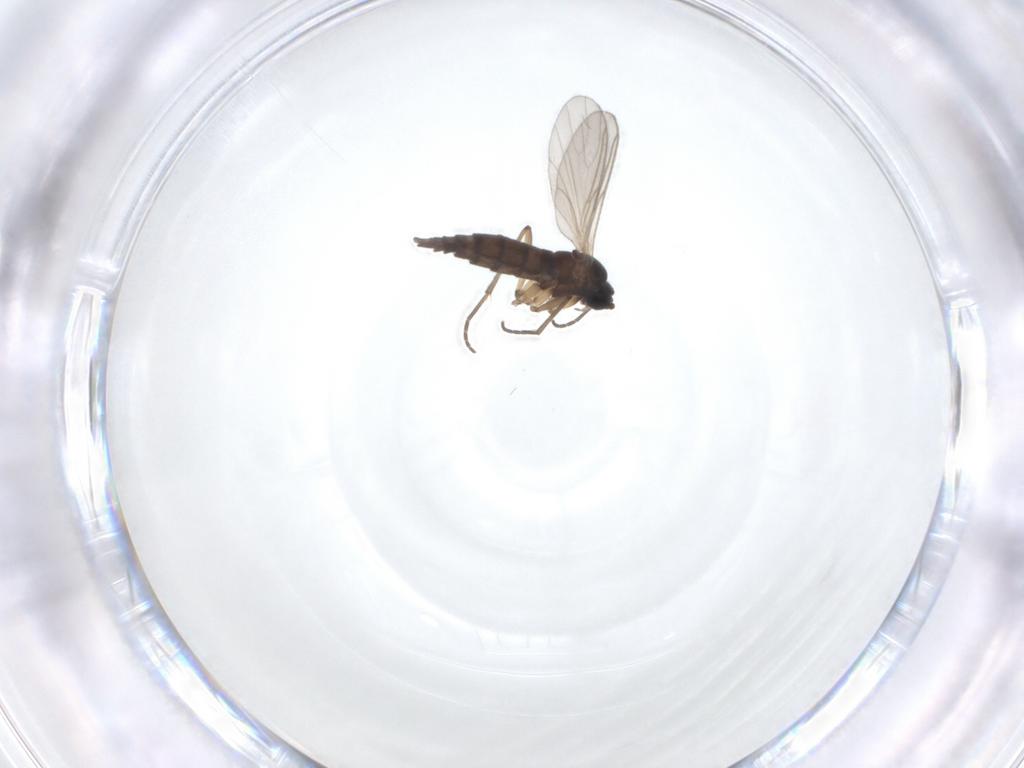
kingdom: Animalia
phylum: Arthropoda
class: Insecta
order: Diptera
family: Sciaridae
